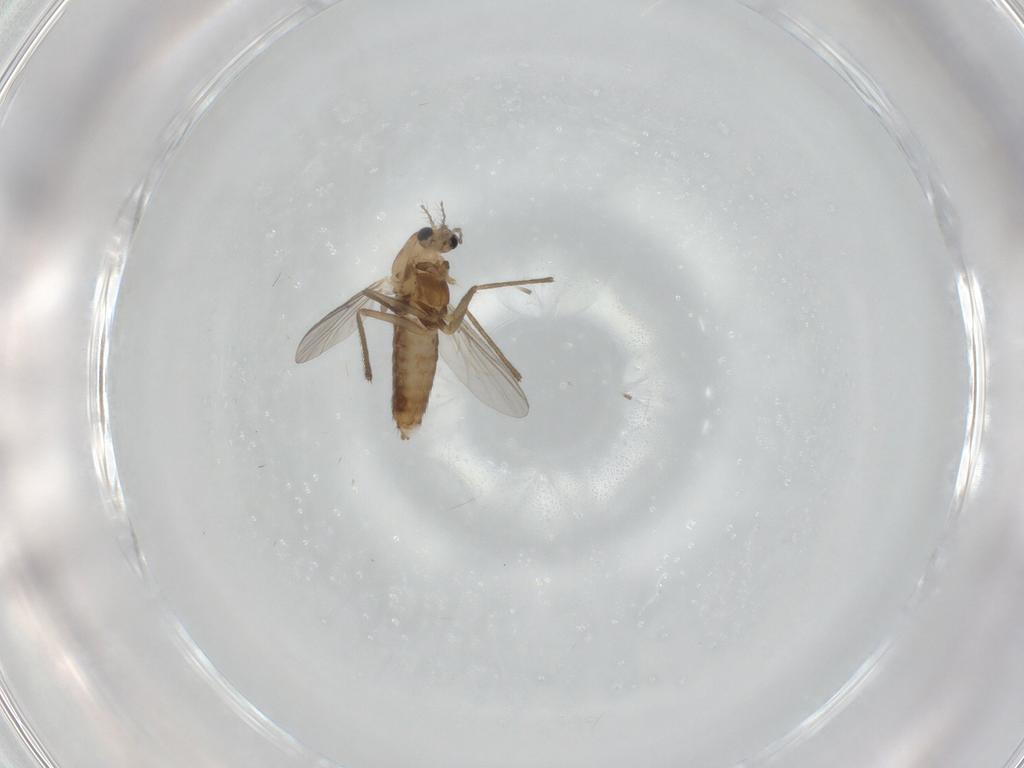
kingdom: Animalia
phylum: Arthropoda
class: Insecta
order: Diptera
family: Chironomidae
